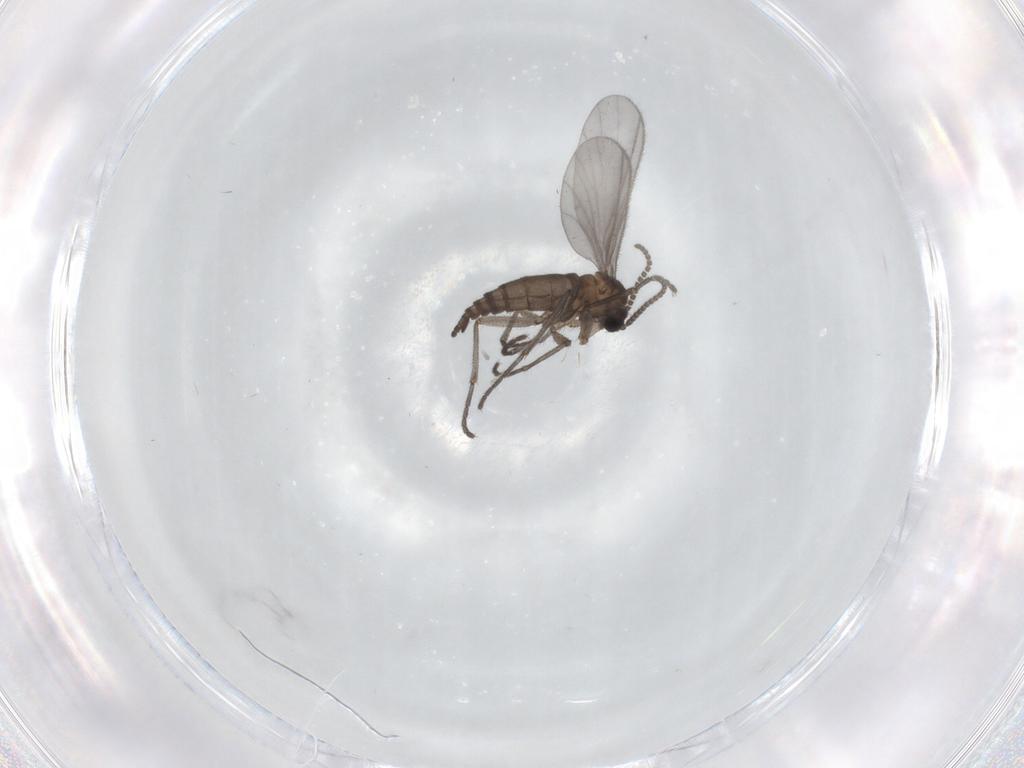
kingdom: Animalia
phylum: Arthropoda
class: Insecta
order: Diptera
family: Sciaridae
